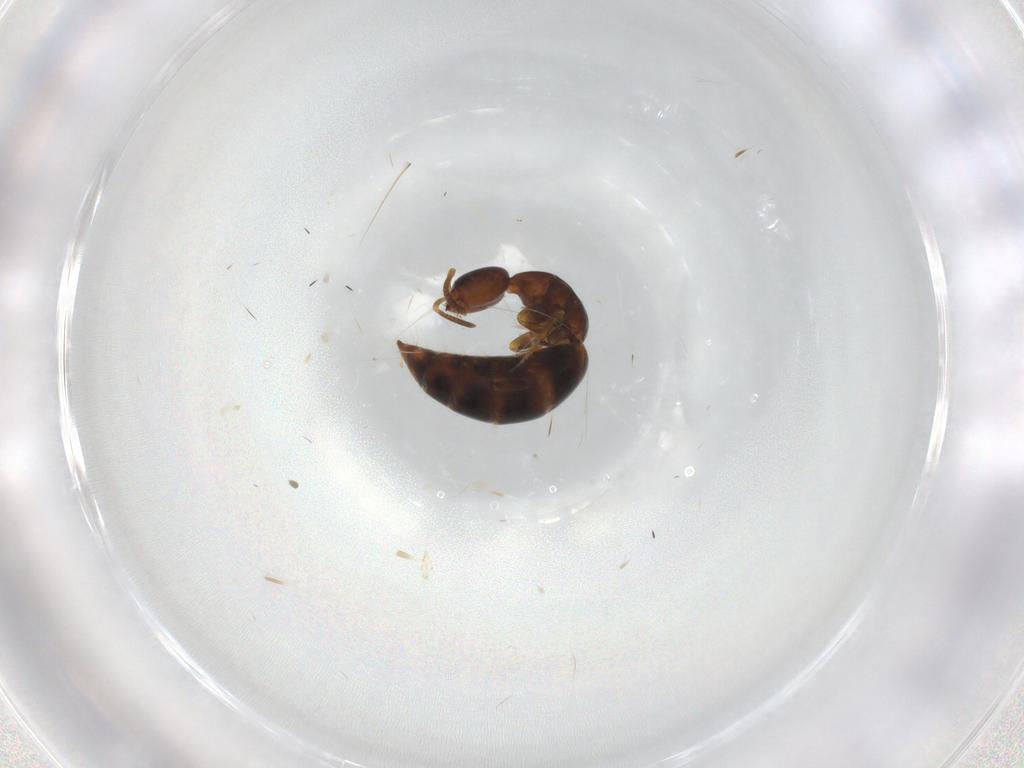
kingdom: Animalia
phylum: Arthropoda
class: Insecta
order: Hymenoptera
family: Bethylidae
